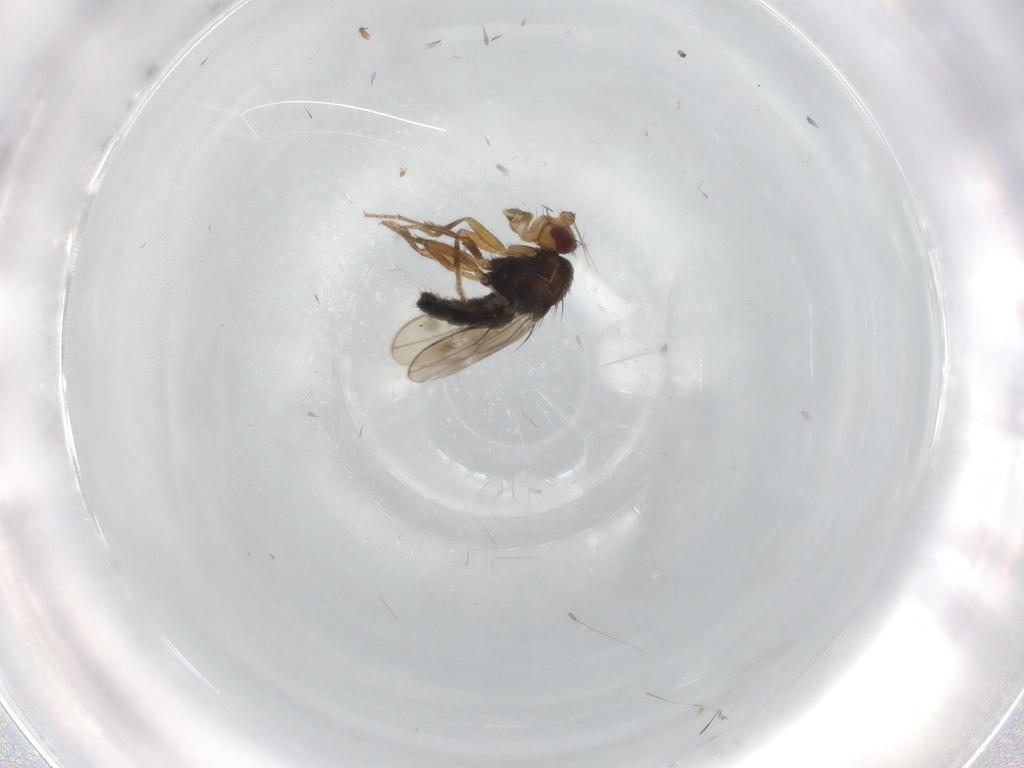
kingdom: Animalia
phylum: Arthropoda
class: Insecta
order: Diptera
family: Sphaeroceridae
